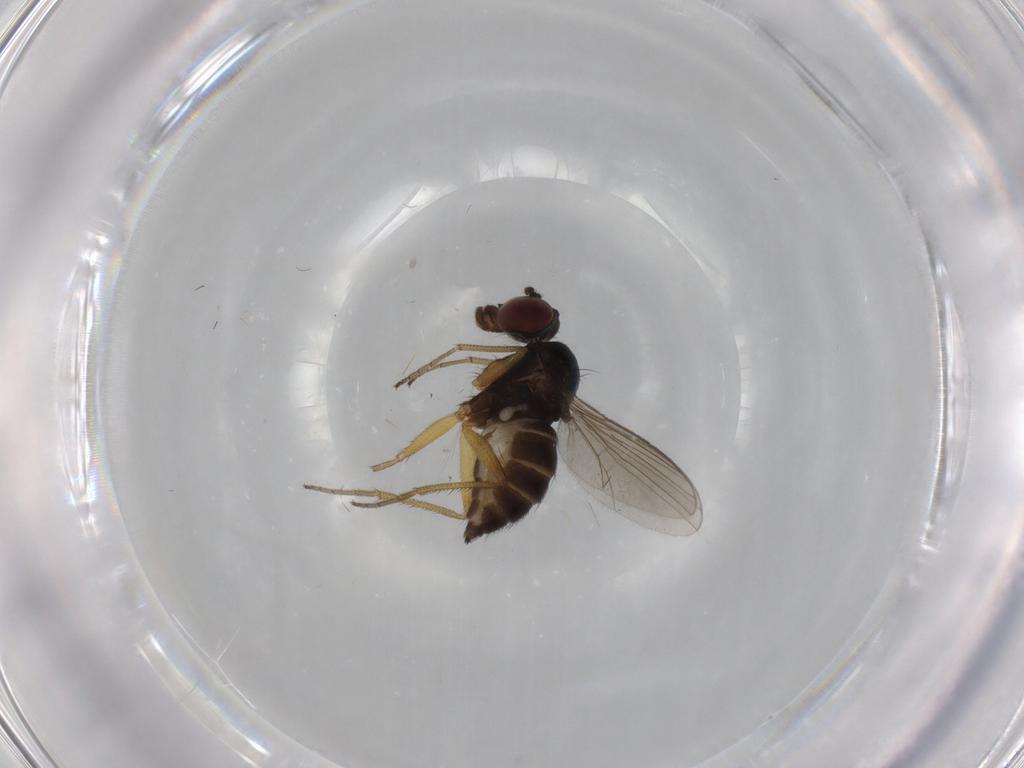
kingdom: Animalia
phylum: Arthropoda
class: Insecta
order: Diptera
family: Dolichopodidae
